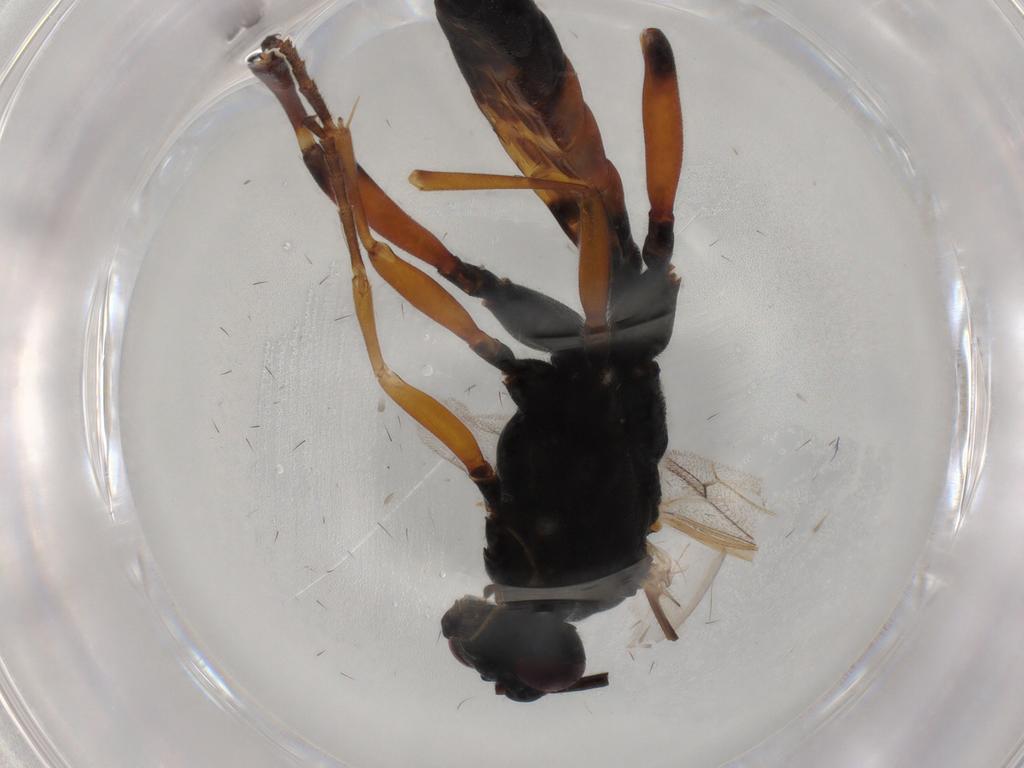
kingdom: Animalia
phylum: Arthropoda
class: Insecta
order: Hymenoptera
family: Ichneumonidae
